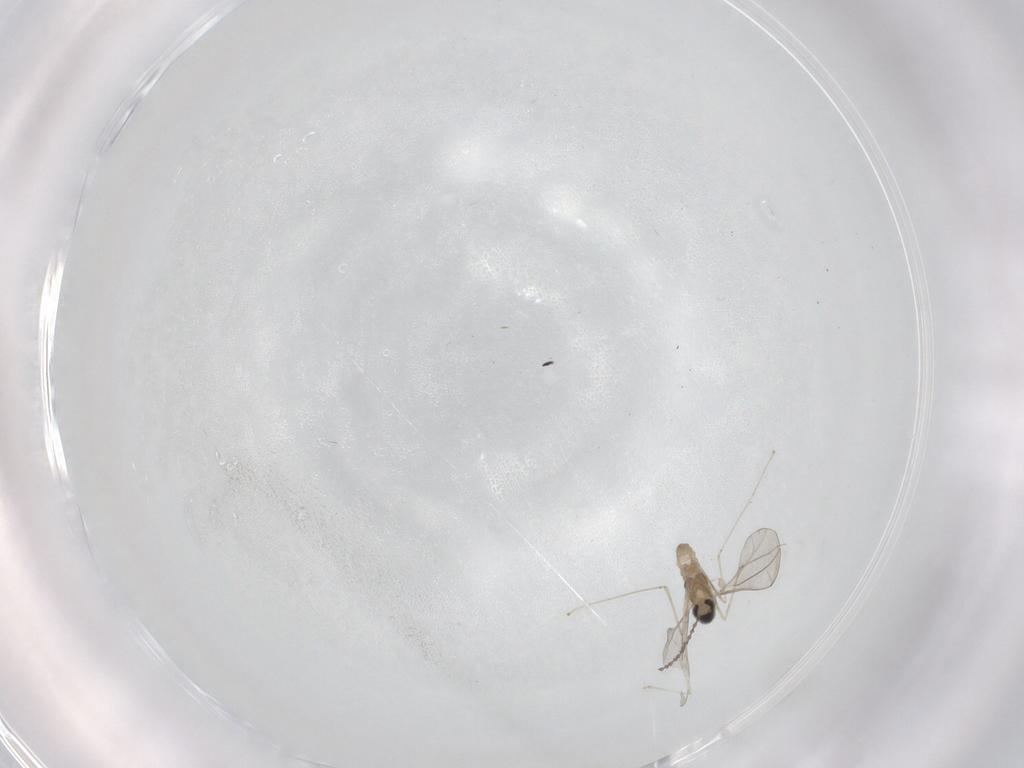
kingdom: Animalia
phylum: Arthropoda
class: Insecta
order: Diptera
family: Cecidomyiidae
